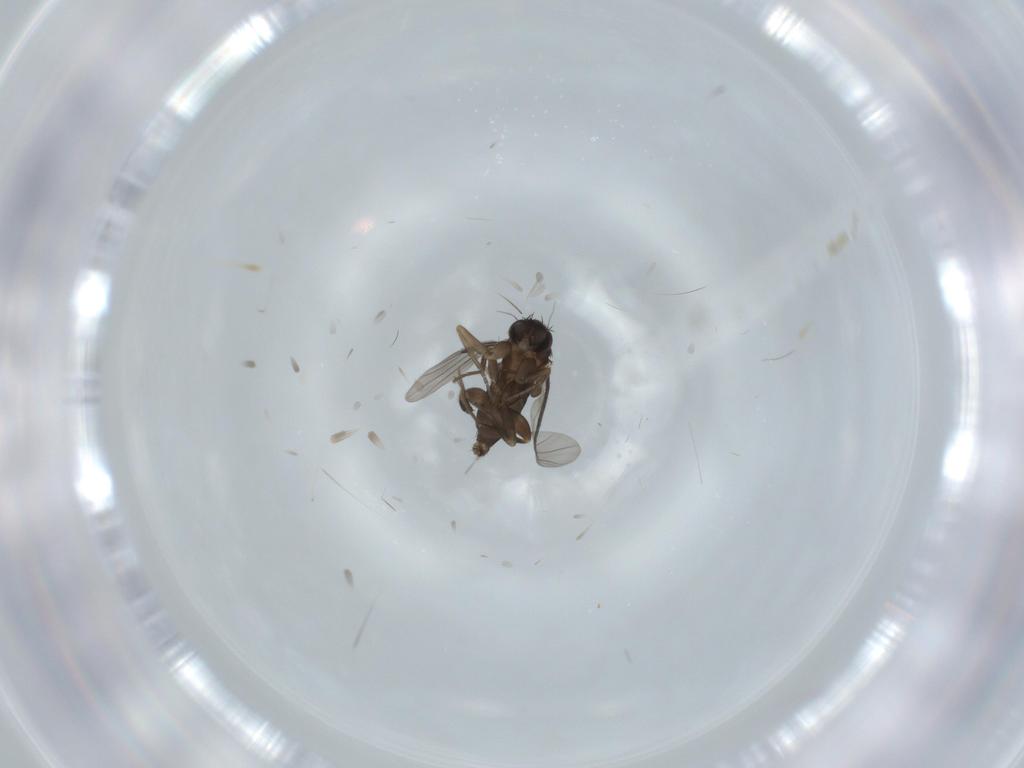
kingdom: Animalia
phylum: Arthropoda
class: Insecta
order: Diptera
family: Phoridae
